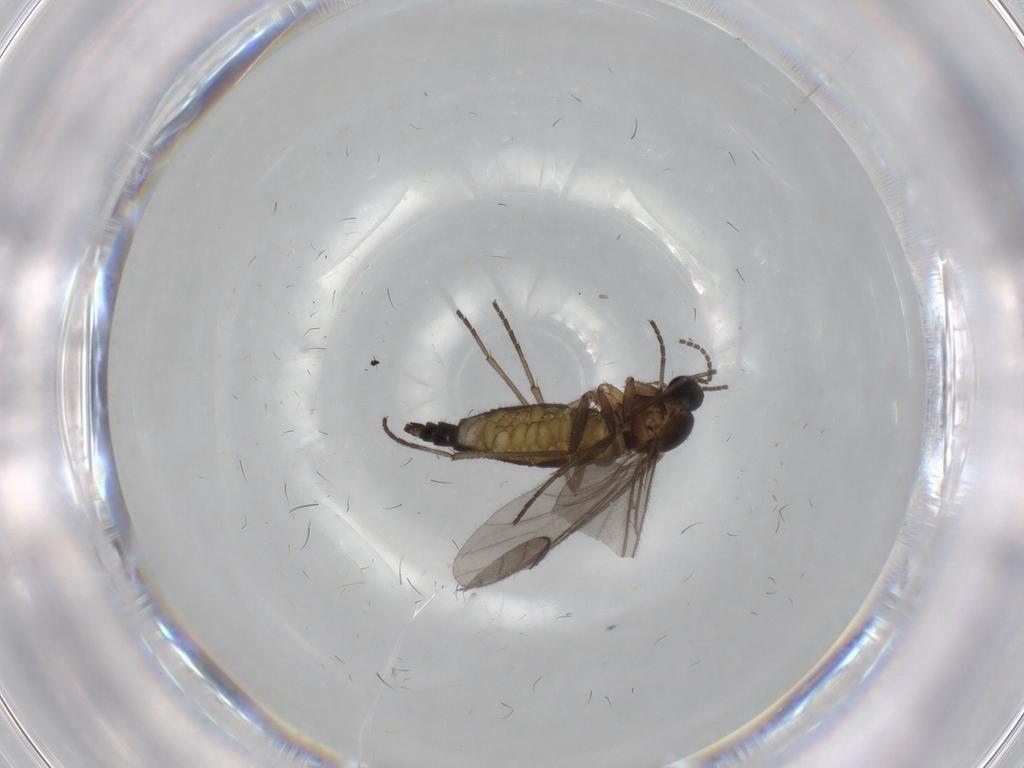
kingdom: Animalia
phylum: Arthropoda
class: Insecta
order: Diptera
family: Sciaridae
